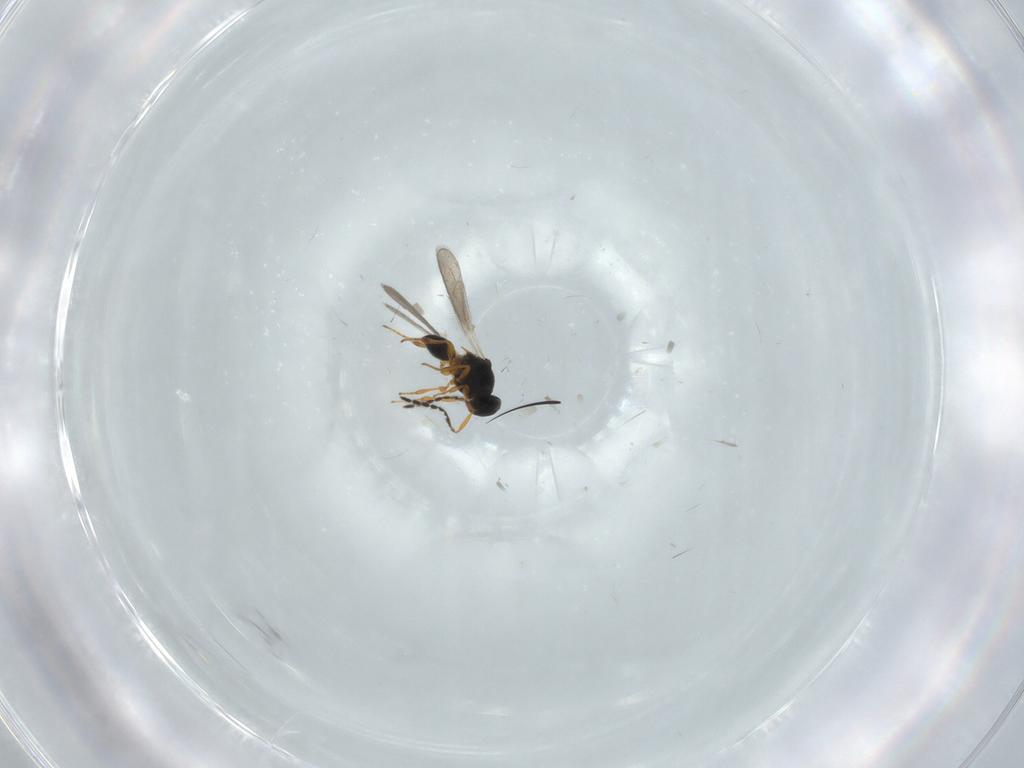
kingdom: Animalia
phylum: Arthropoda
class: Insecta
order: Hymenoptera
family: Platygastridae
